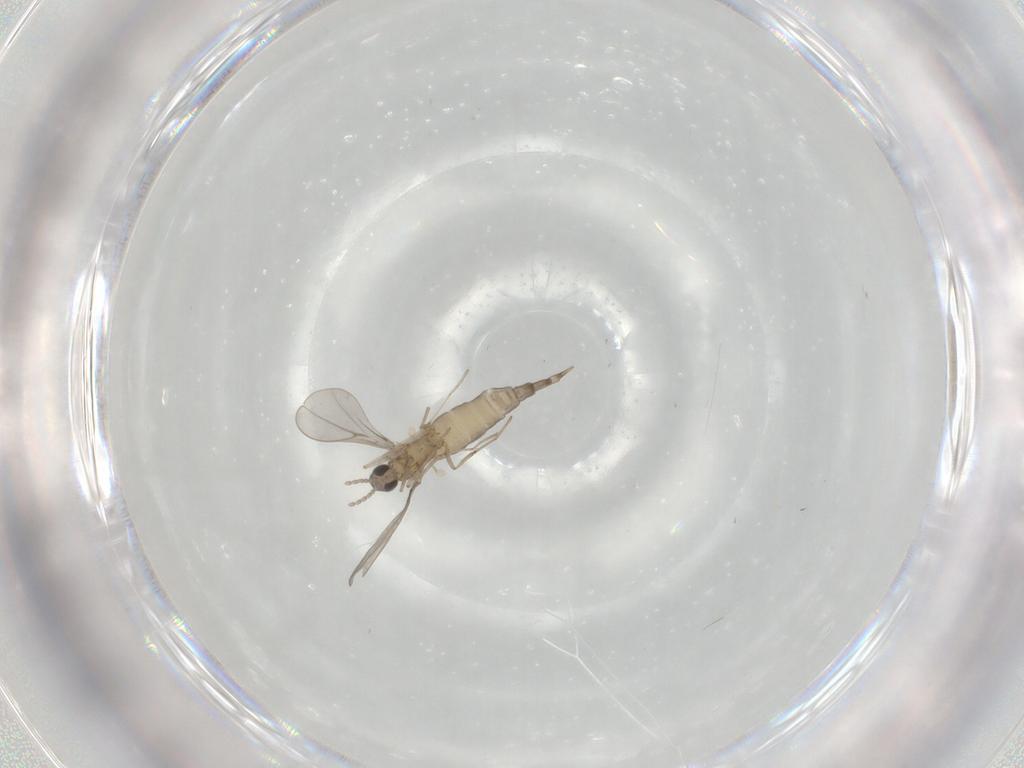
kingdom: Animalia
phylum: Arthropoda
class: Insecta
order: Diptera
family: Cecidomyiidae
